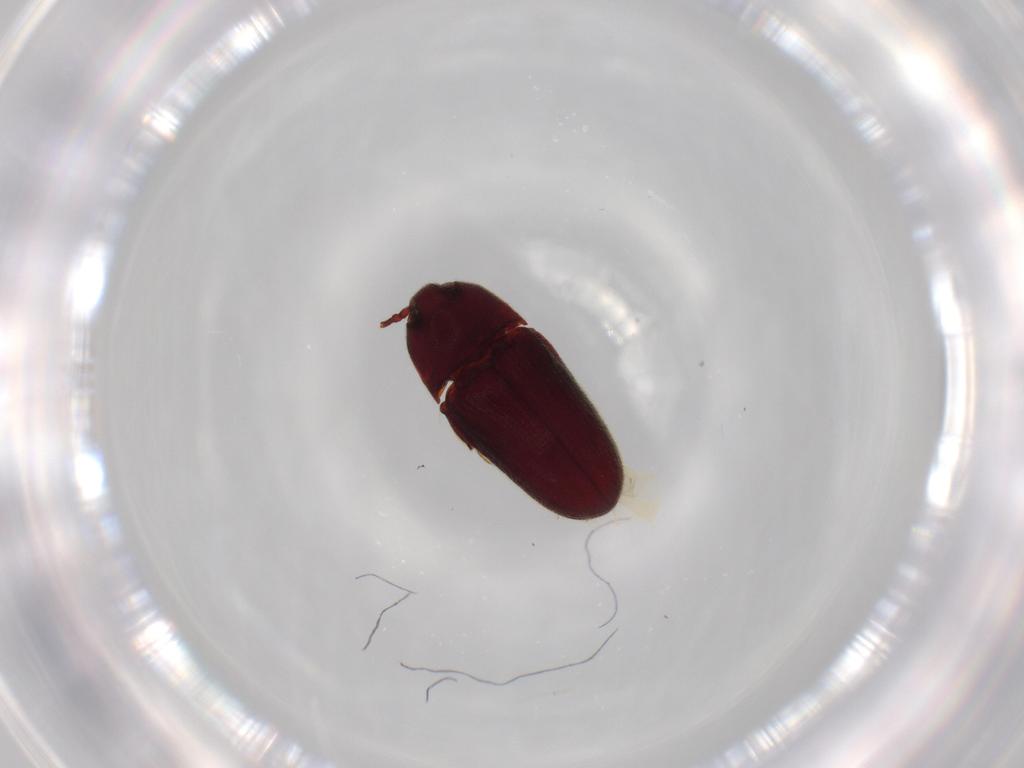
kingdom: Animalia
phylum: Arthropoda
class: Insecta
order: Coleoptera
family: Throscidae
